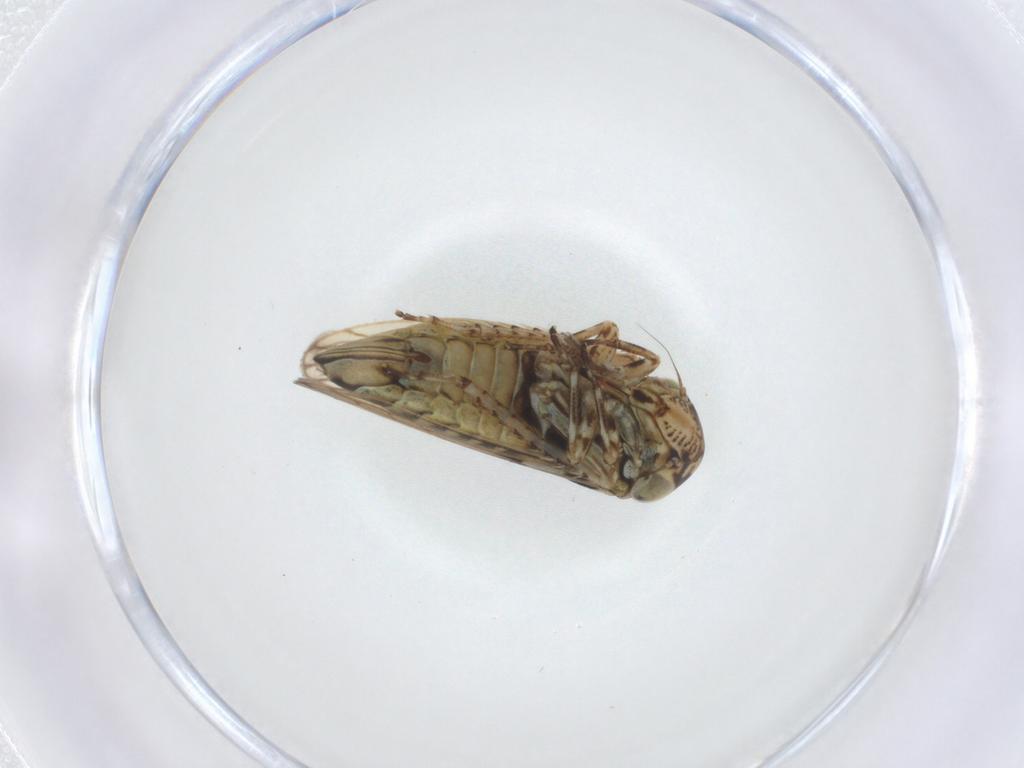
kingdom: Animalia
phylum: Arthropoda
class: Insecta
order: Hemiptera
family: Cicadellidae
